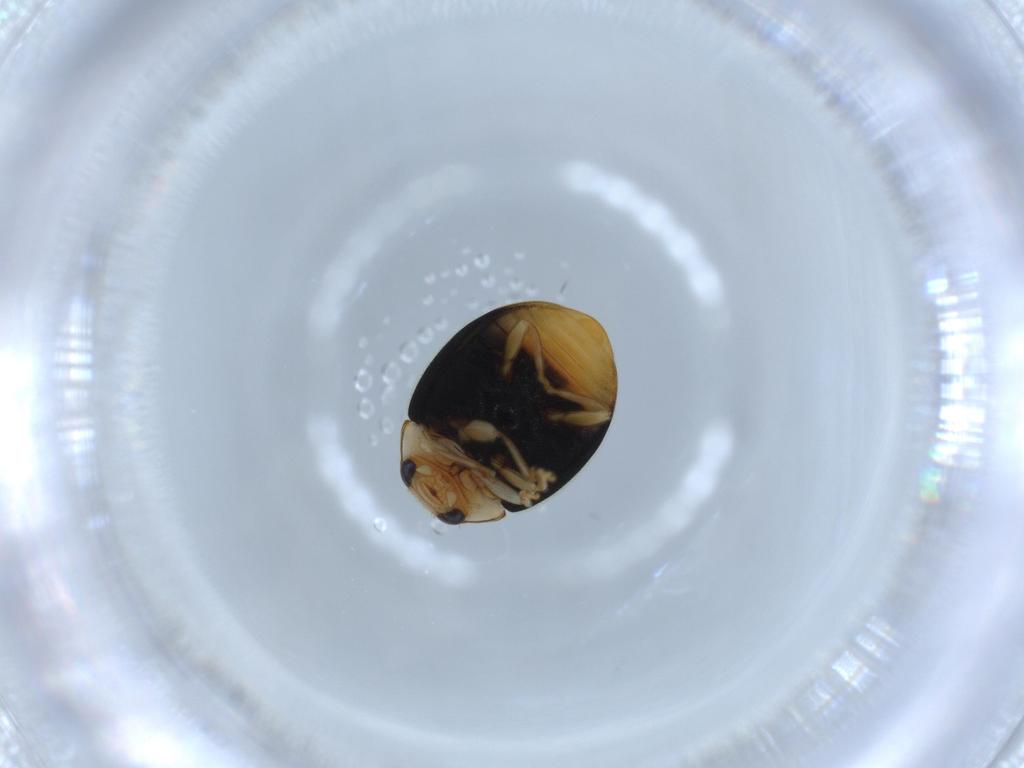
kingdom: Animalia
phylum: Arthropoda
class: Insecta
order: Coleoptera
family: Coccinellidae
